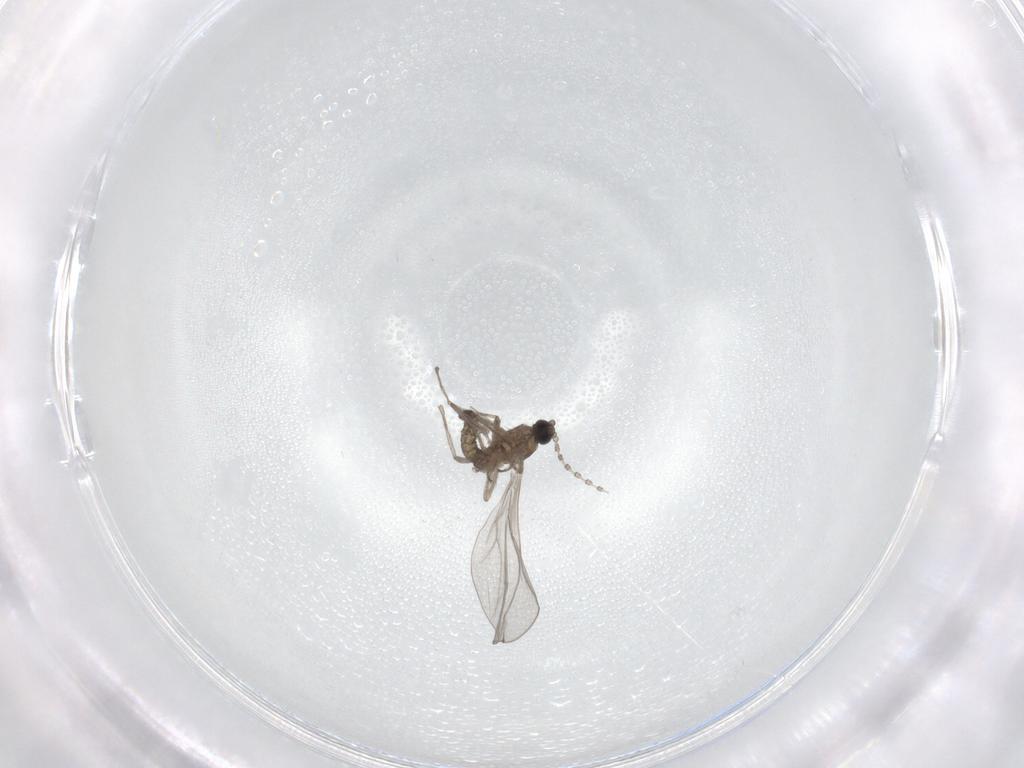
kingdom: Animalia
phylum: Arthropoda
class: Insecta
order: Diptera
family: Cecidomyiidae
